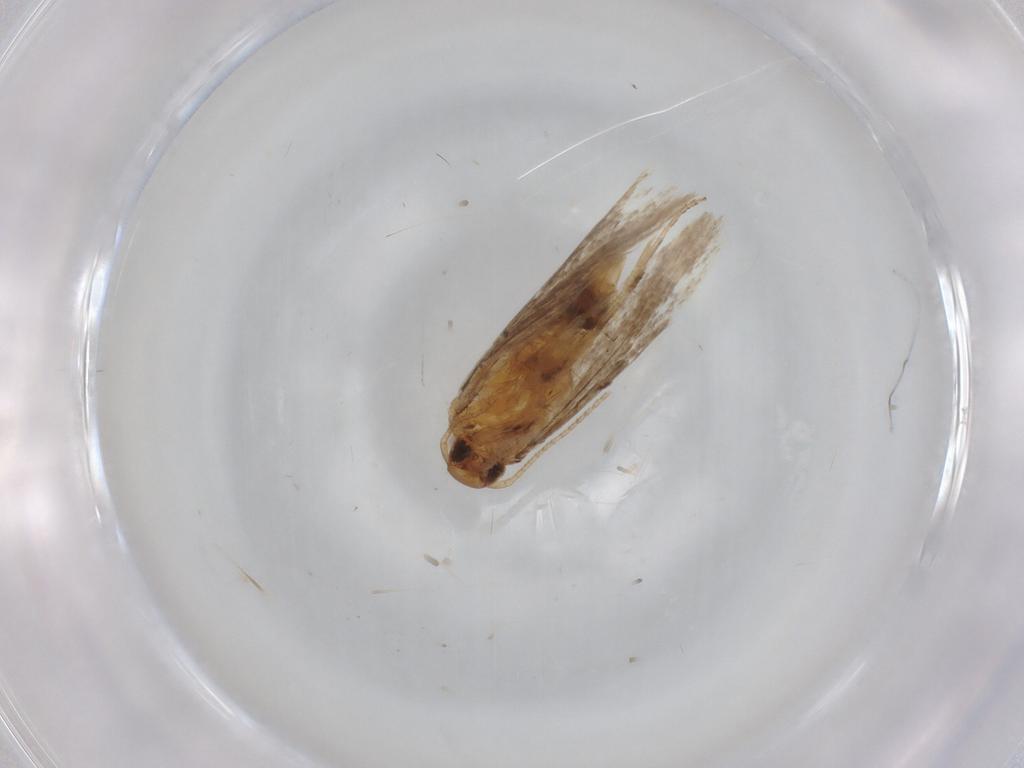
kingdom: Animalia
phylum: Arthropoda
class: Insecta
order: Lepidoptera
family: Gelechiidae
